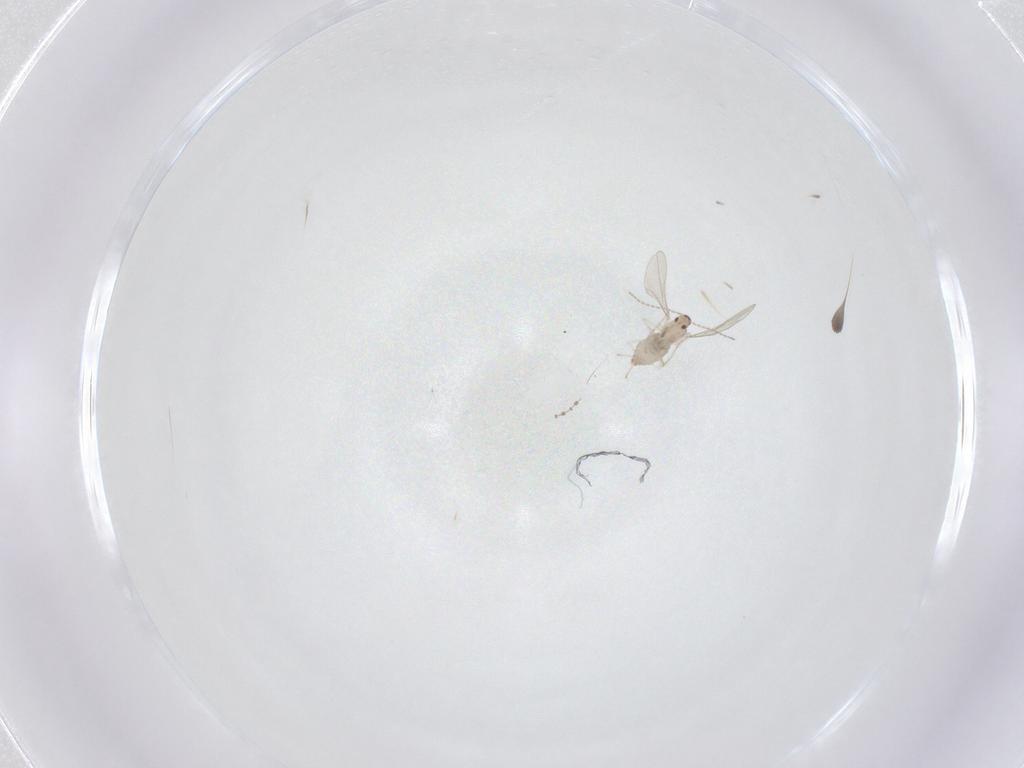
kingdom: Animalia
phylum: Arthropoda
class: Insecta
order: Diptera
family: Cecidomyiidae
